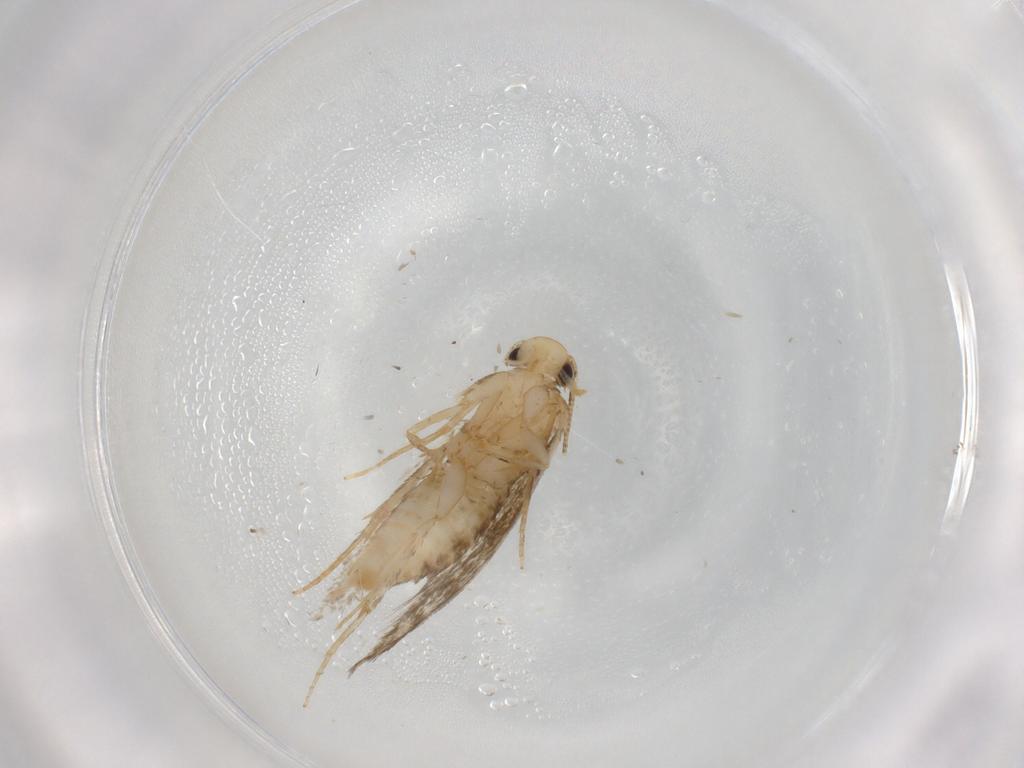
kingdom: Animalia
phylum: Arthropoda
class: Insecta
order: Lepidoptera
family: Tineidae
